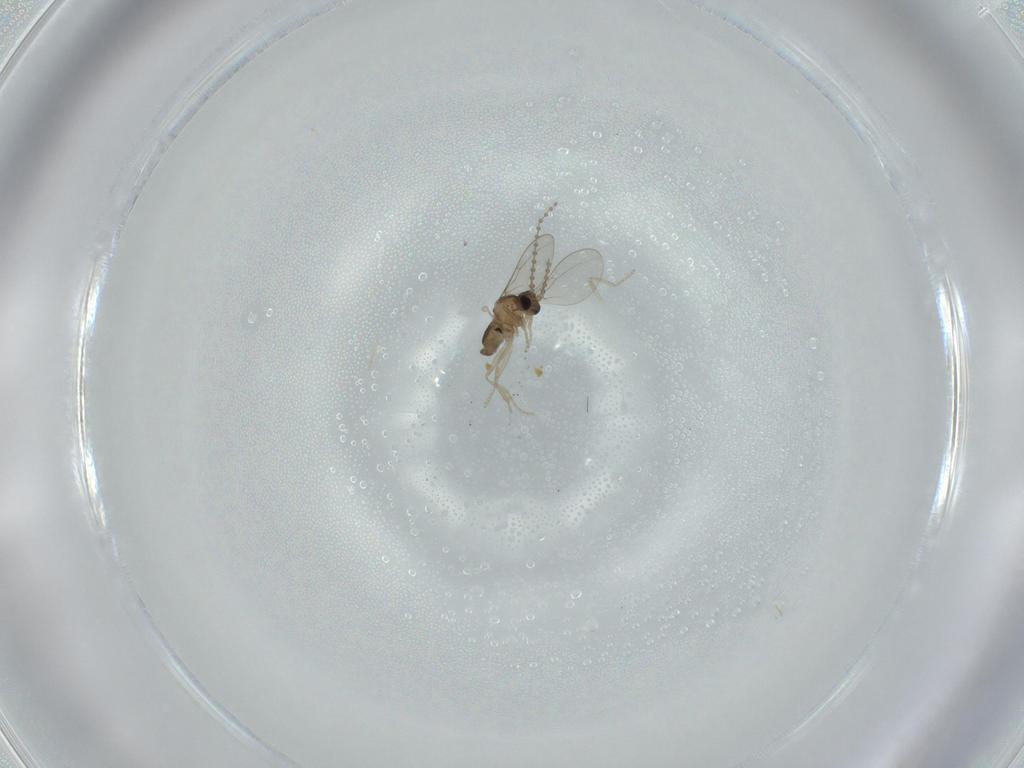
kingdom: Animalia
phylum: Arthropoda
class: Insecta
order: Diptera
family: Cecidomyiidae
